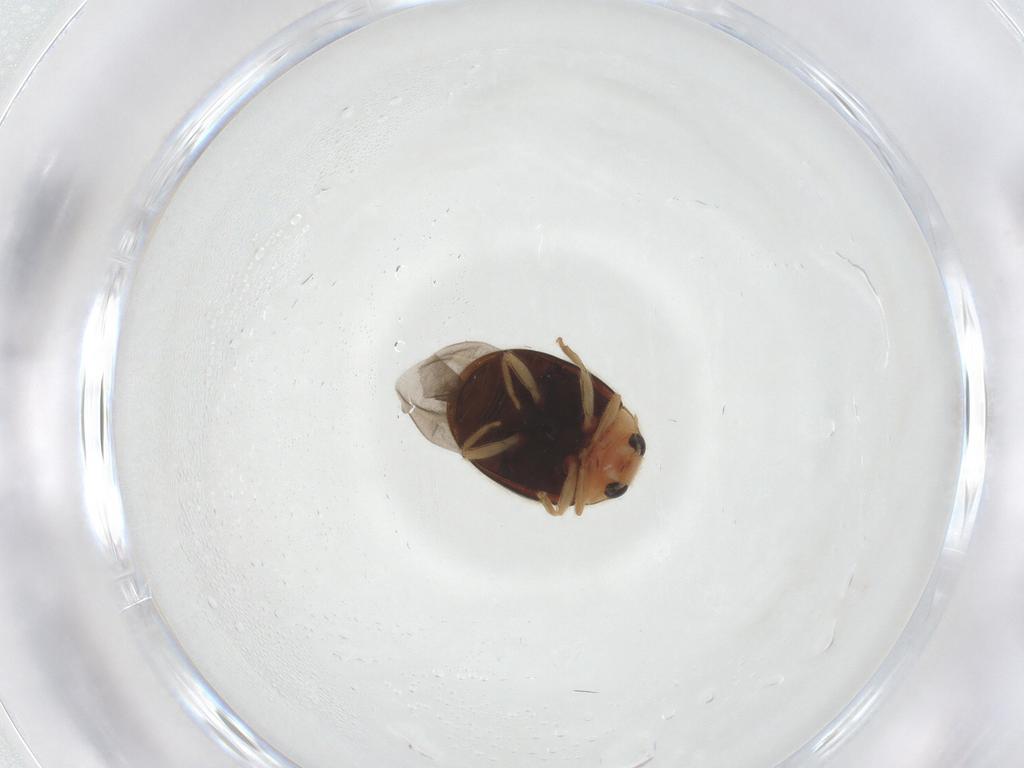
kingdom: Animalia
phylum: Arthropoda
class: Insecta
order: Coleoptera
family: Coccinellidae
